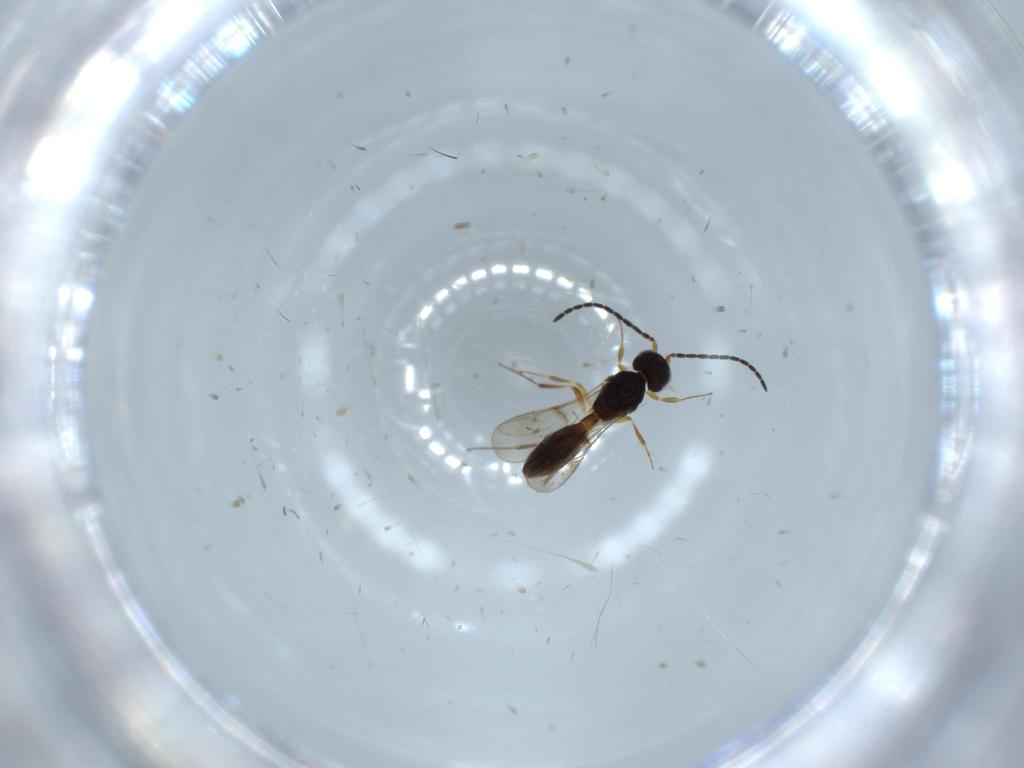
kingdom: Animalia
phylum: Arthropoda
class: Insecta
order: Hymenoptera
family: Scelionidae
